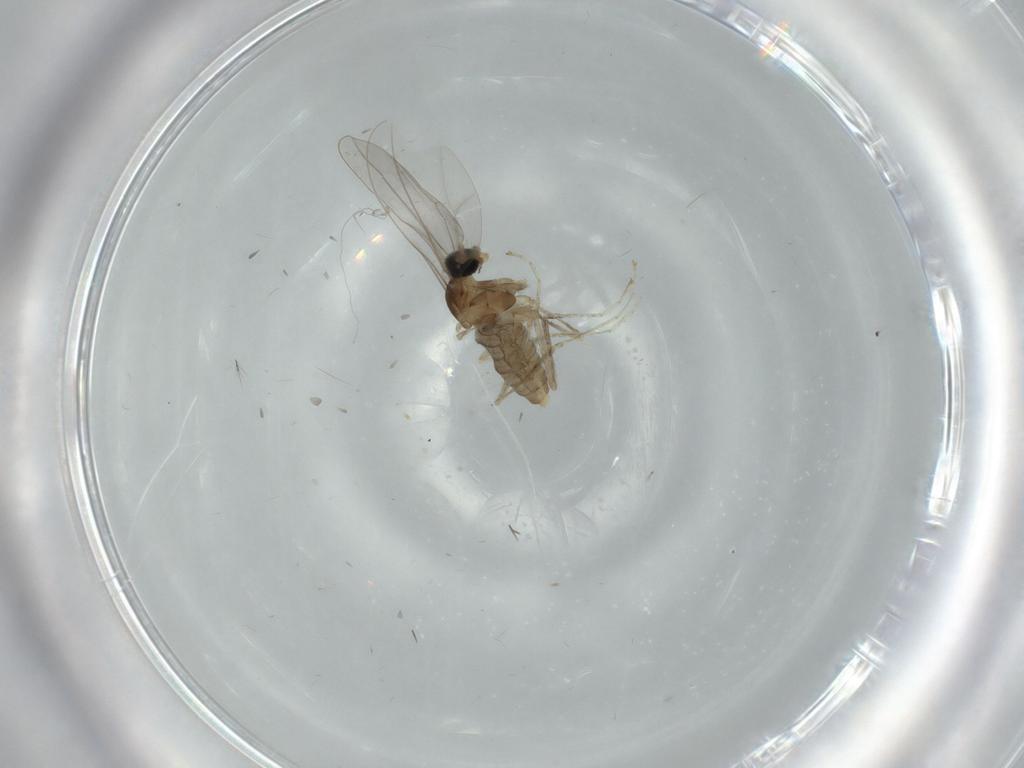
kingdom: Animalia
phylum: Arthropoda
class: Insecta
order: Diptera
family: Cecidomyiidae
